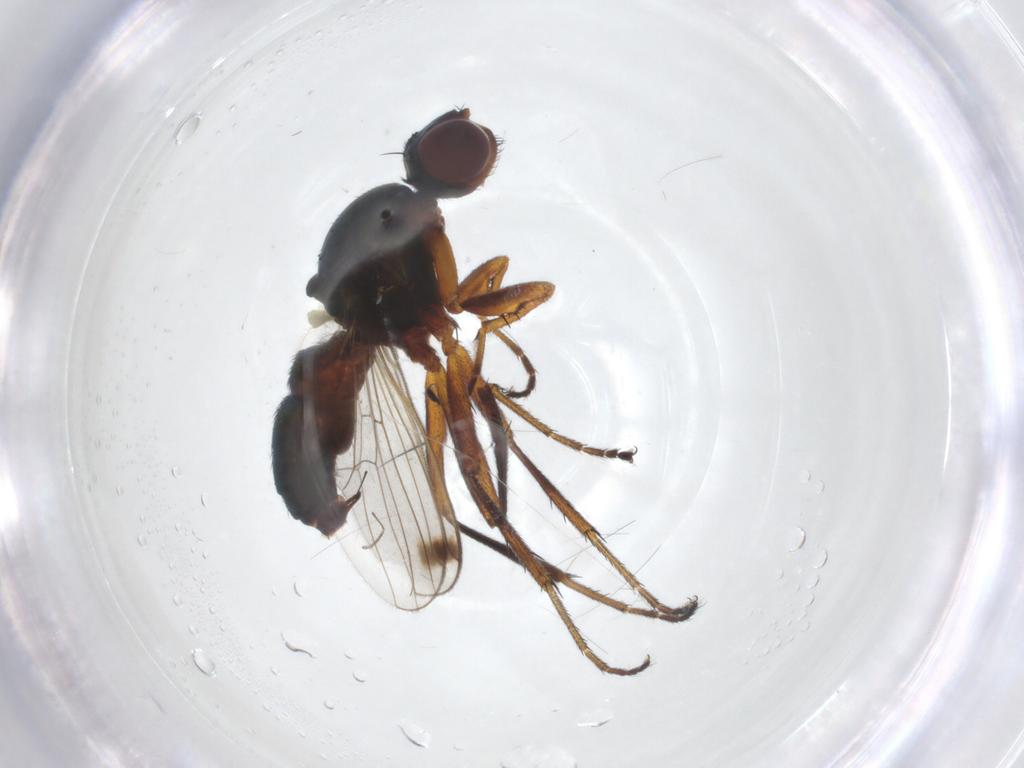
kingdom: Animalia
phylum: Arthropoda
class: Insecta
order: Diptera
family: Sepsidae
